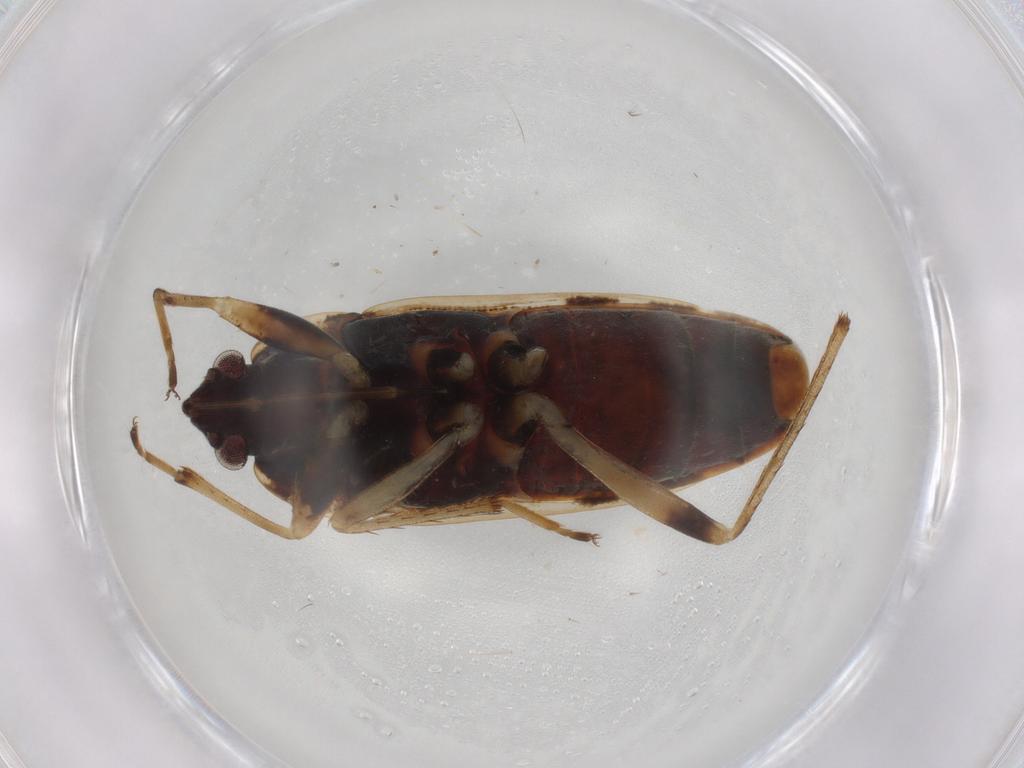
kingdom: Animalia
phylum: Arthropoda
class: Insecta
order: Hemiptera
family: Rhyparochromidae
